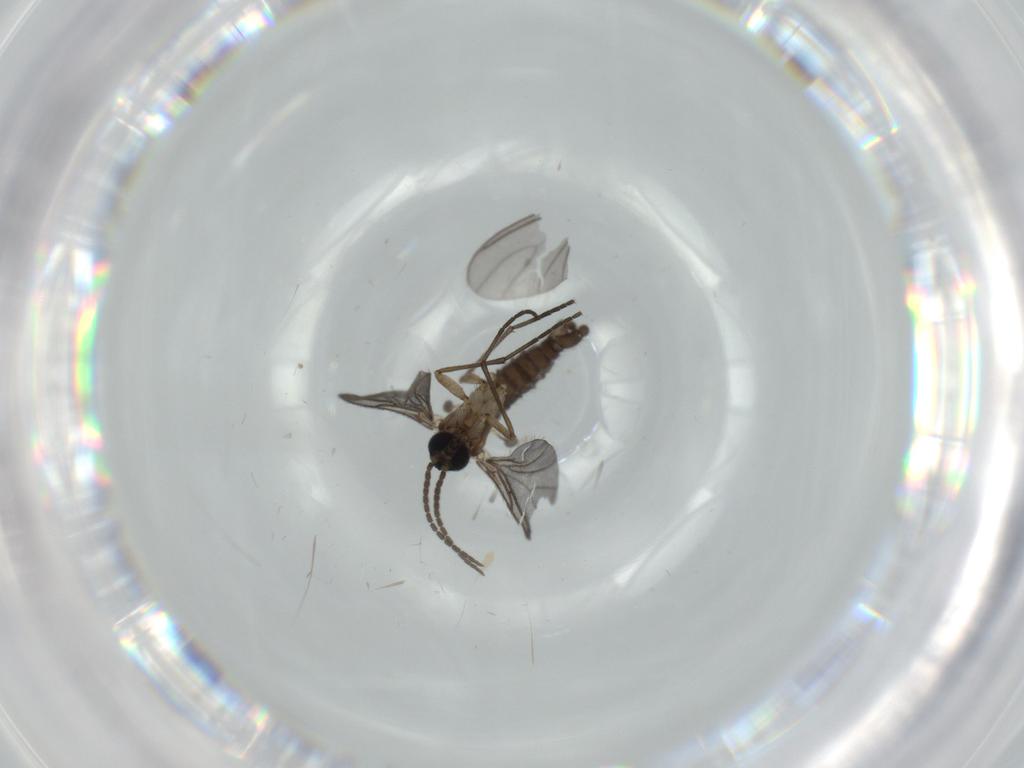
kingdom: Animalia
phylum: Arthropoda
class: Insecta
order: Diptera
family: Sciaridae
